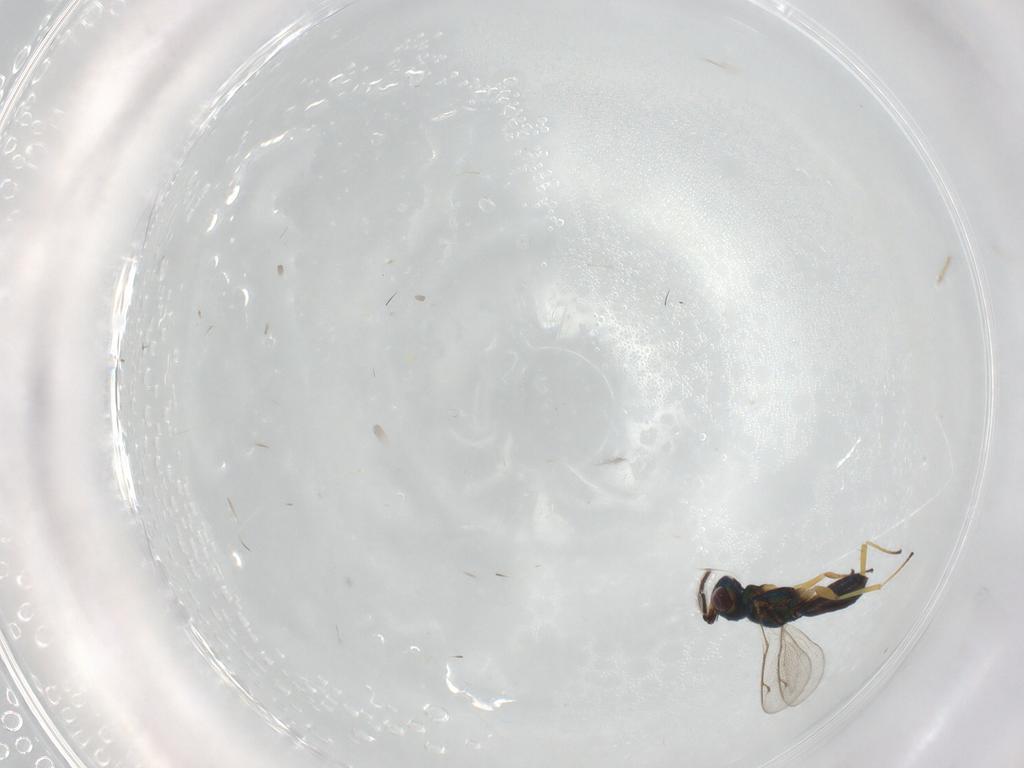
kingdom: Animalia
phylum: Arthropoda
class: Insecta
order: Hymenoptera
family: Eupelmidae
